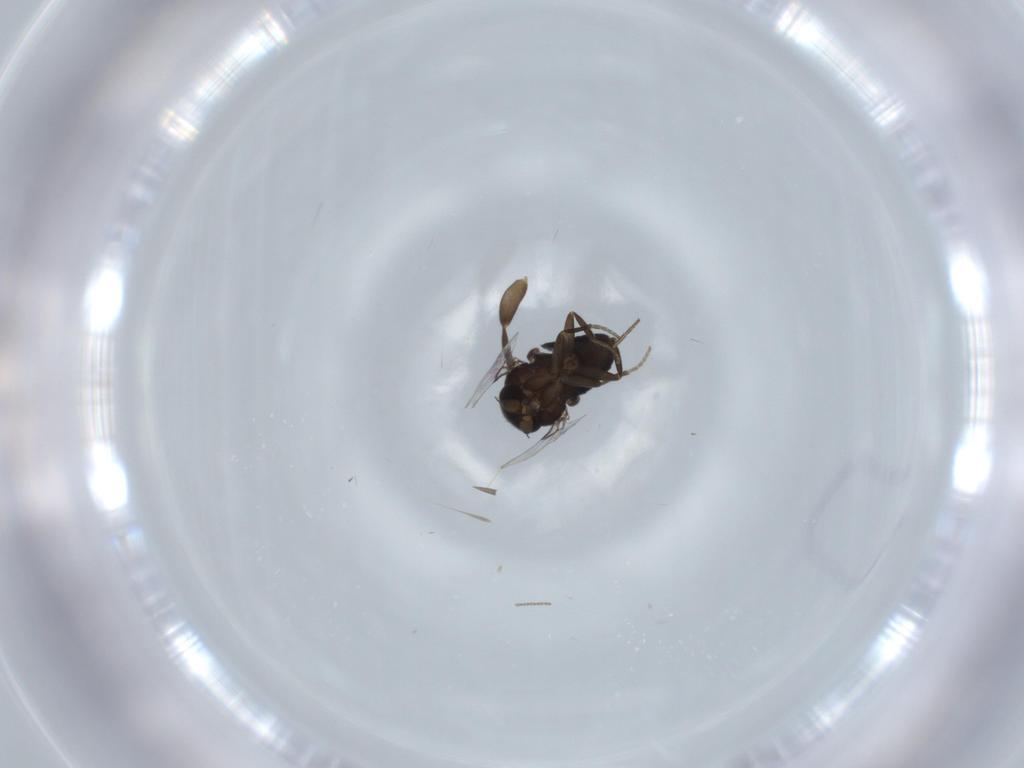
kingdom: Animalia
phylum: Arthropoda
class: Insecta
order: Diptera
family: Phoridae
